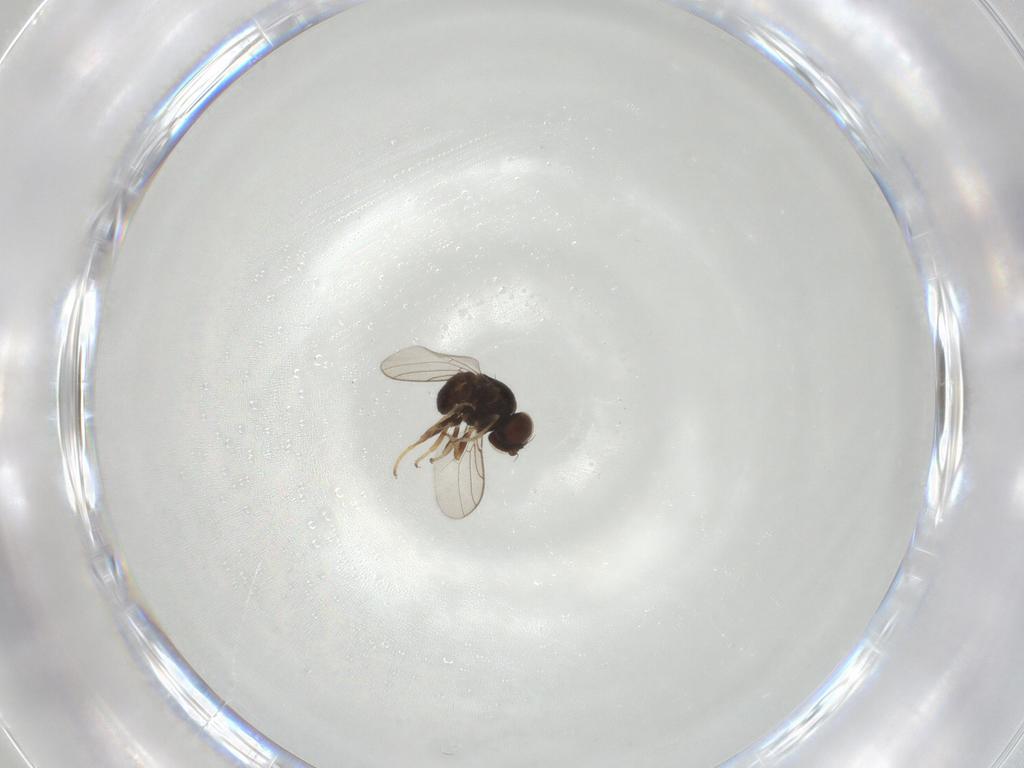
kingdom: Animalia
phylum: Arthropoda
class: Insecta
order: Diptera
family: Chloropidae
